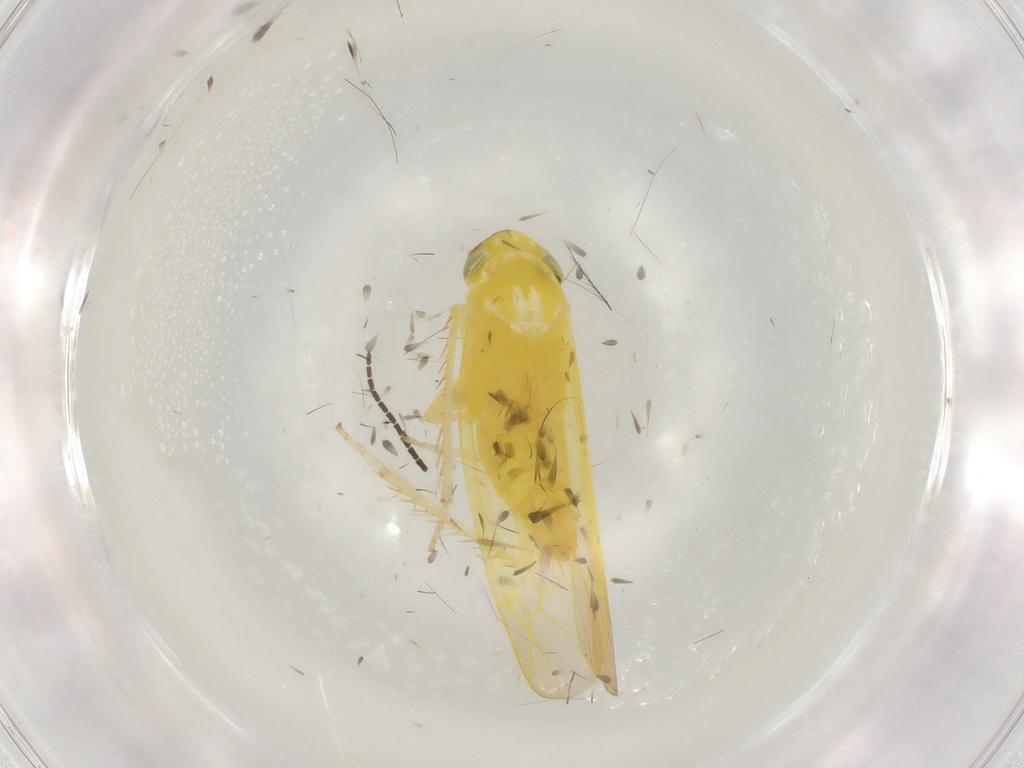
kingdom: Animalia
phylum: Arthropoda
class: Insecta
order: Hemiptera
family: Cicadellidae
